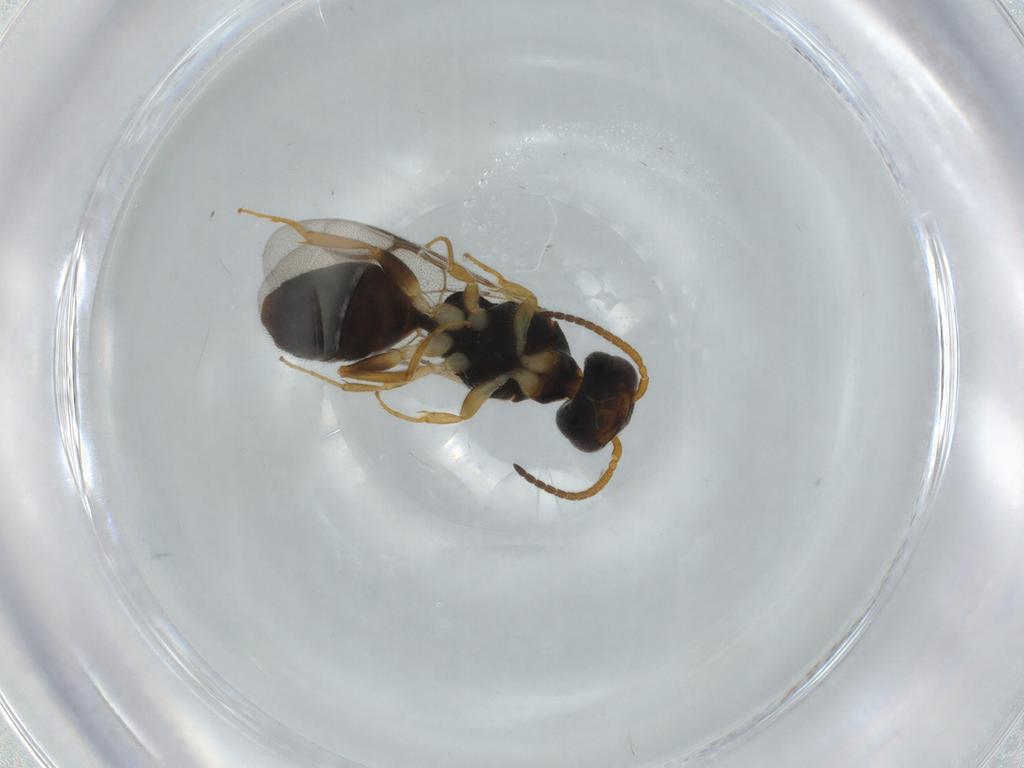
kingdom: Animalia
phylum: Arthropoda
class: Insecta
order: Hymenoptera
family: Bethylidae
